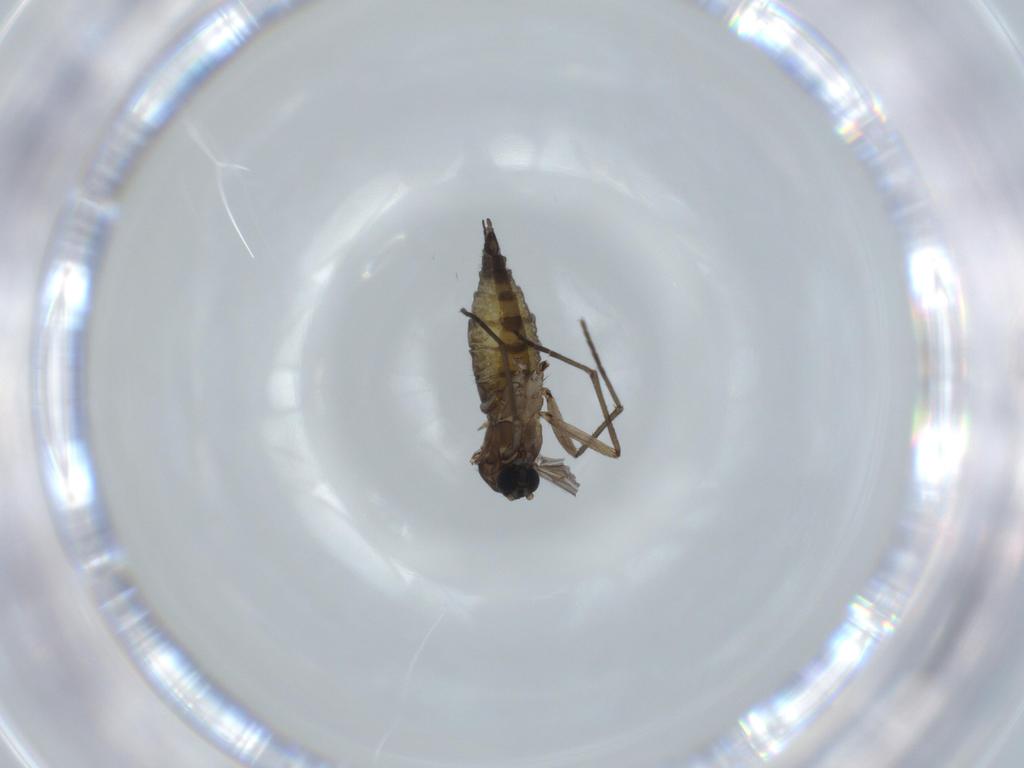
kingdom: Animalia
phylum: Arthropoda
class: Insecta
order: Diptera
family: Sciaridae
